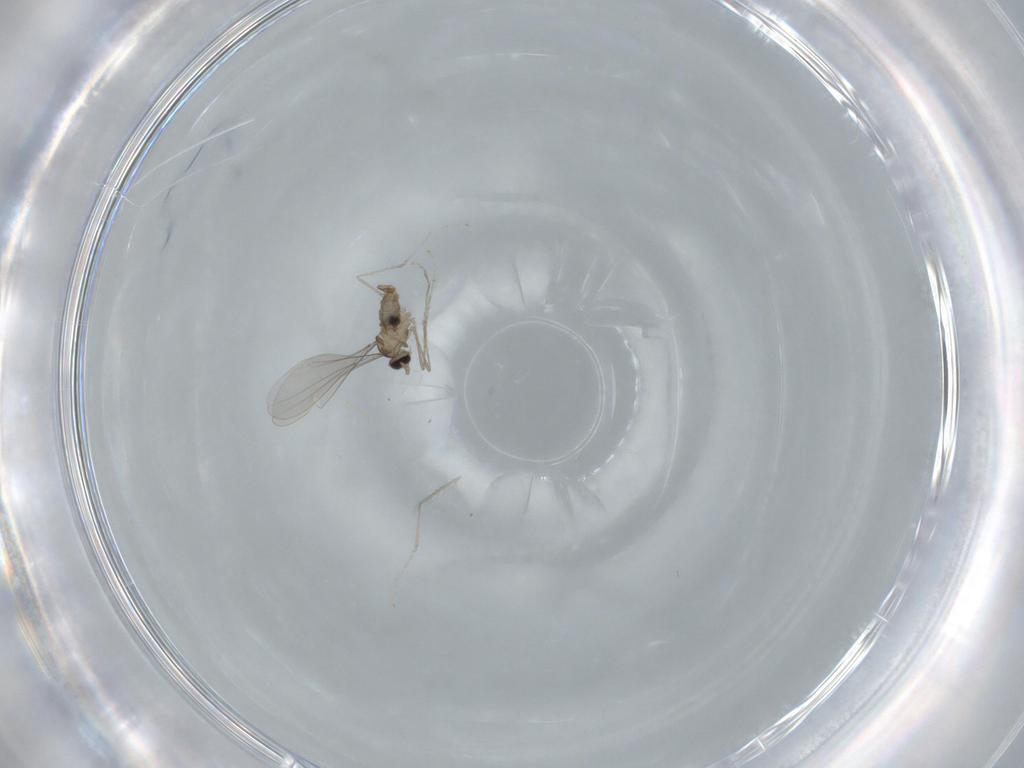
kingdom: Animalia
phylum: Arthropoda
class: Insecta
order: Diptera
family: Cecidomyiidae
